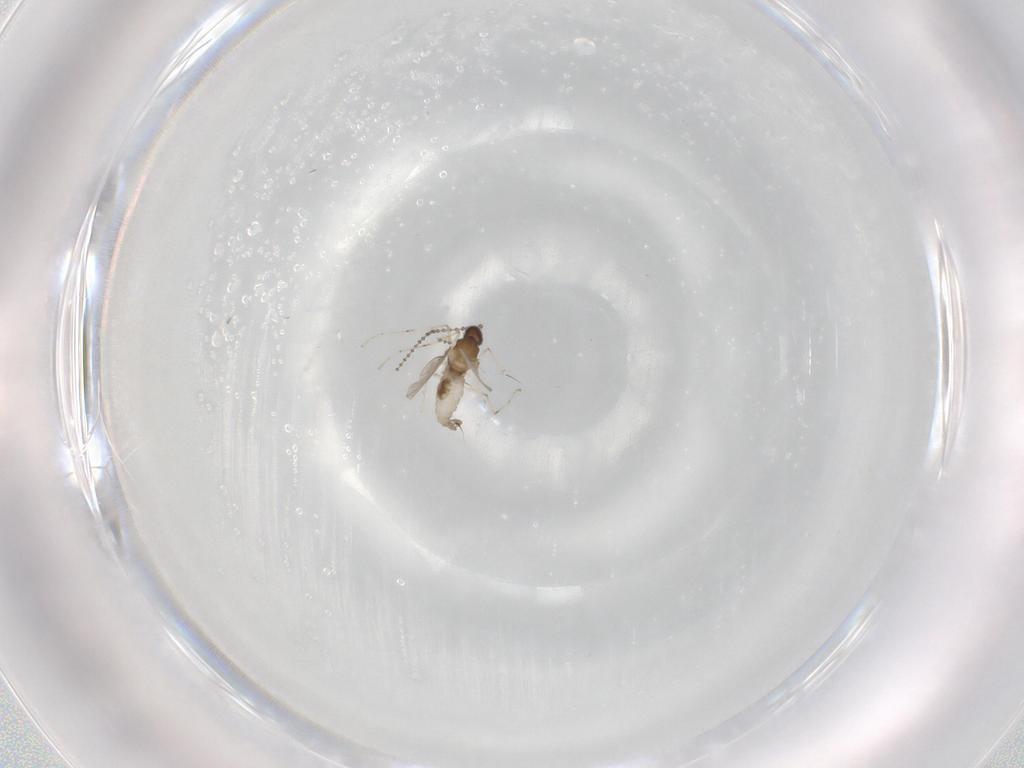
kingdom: Animalia
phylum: Arthropoda
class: Insecta
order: Diptera
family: Cecidomyiidae
